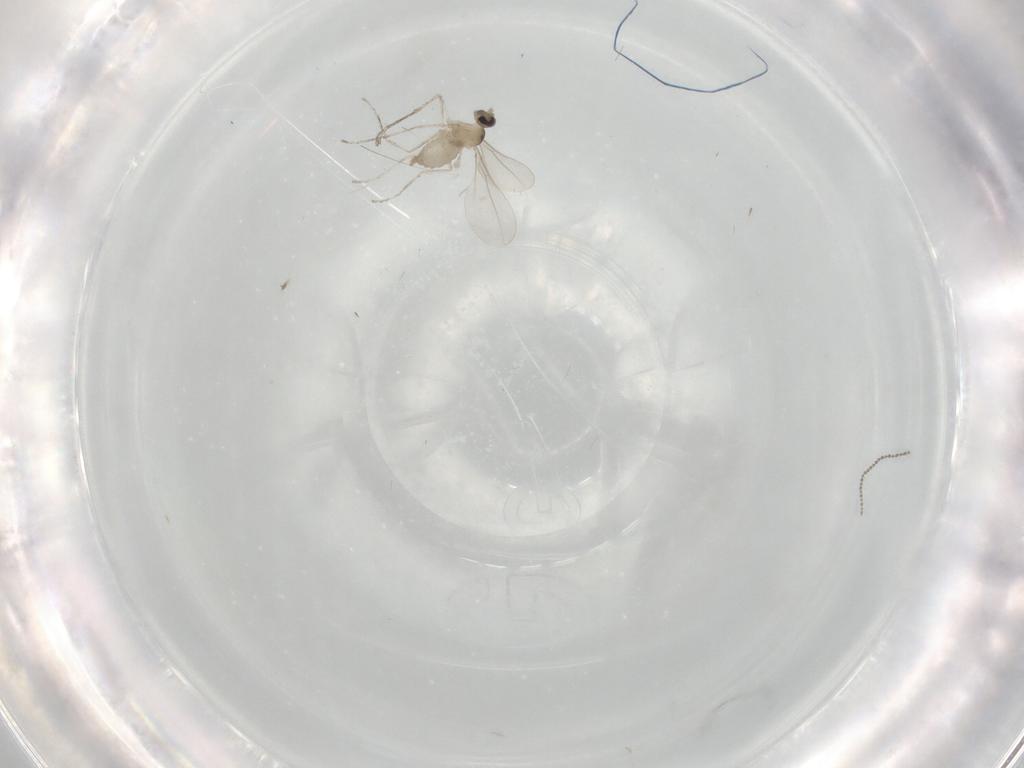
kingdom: Animalia
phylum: Arthropoda
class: Insecta
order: Diptera
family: Cecidomyiidae
